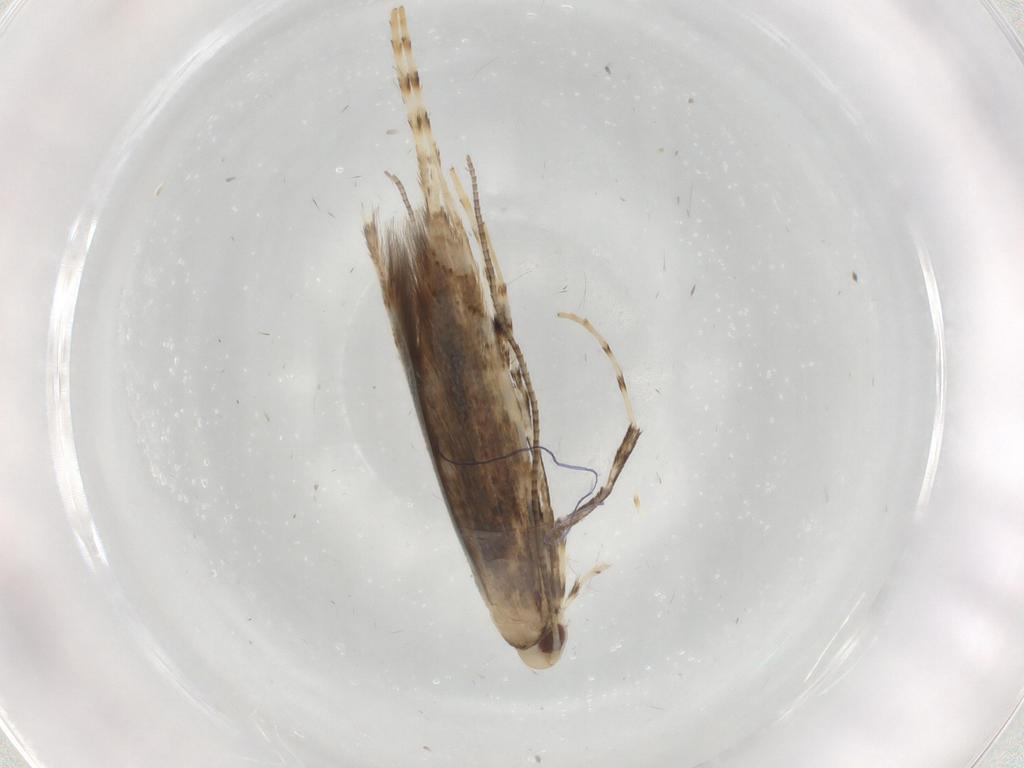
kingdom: Animalia
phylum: Arthropoda
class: Insecta
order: Lepidoptera
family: Gracillariidae
